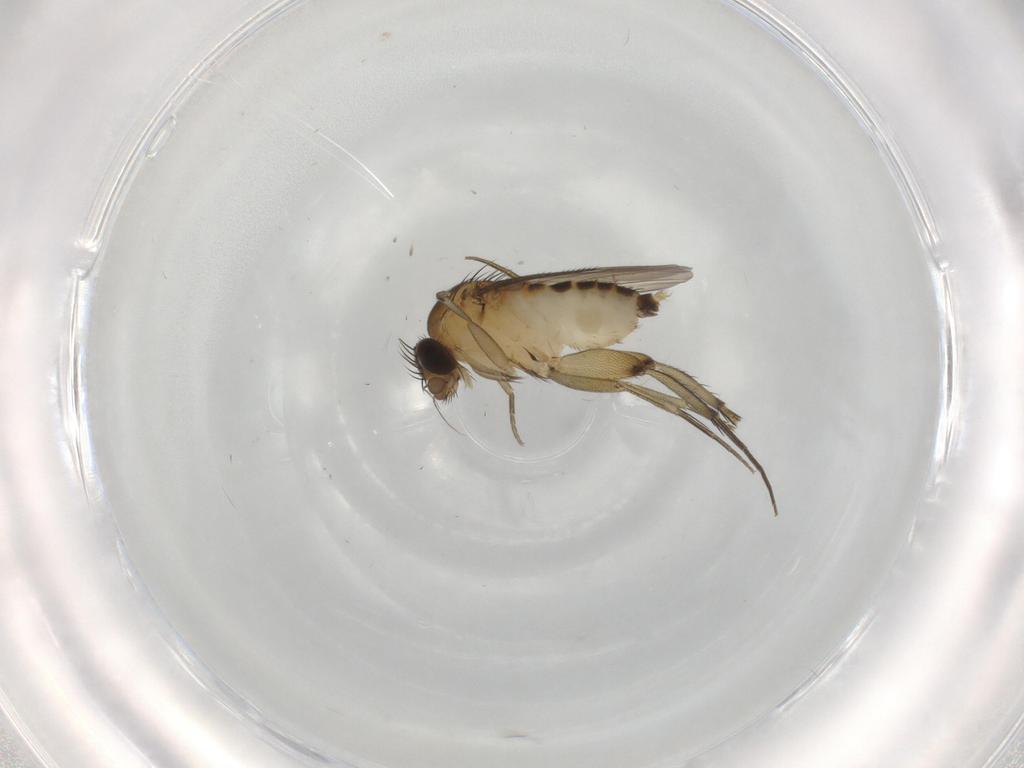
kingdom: Animalia
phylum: Arthropoda
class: Insecta
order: Diptera
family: Phoridae
